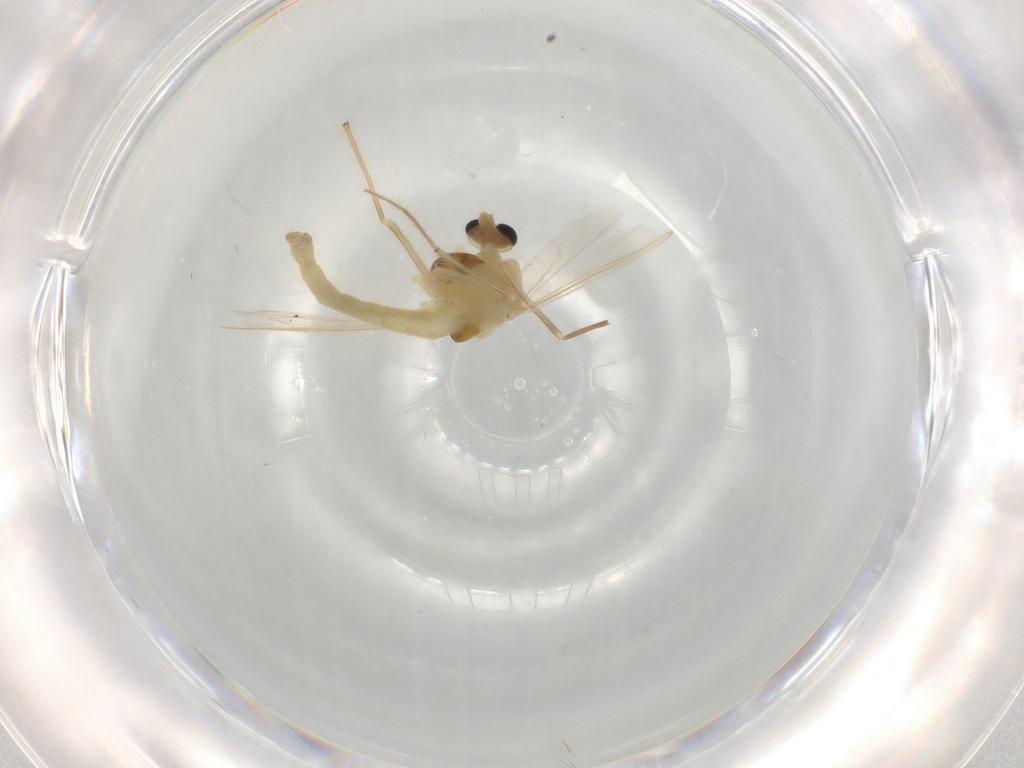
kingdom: Animalia
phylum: Arthropoda
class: Insecta
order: Diptera
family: Chironomidae
